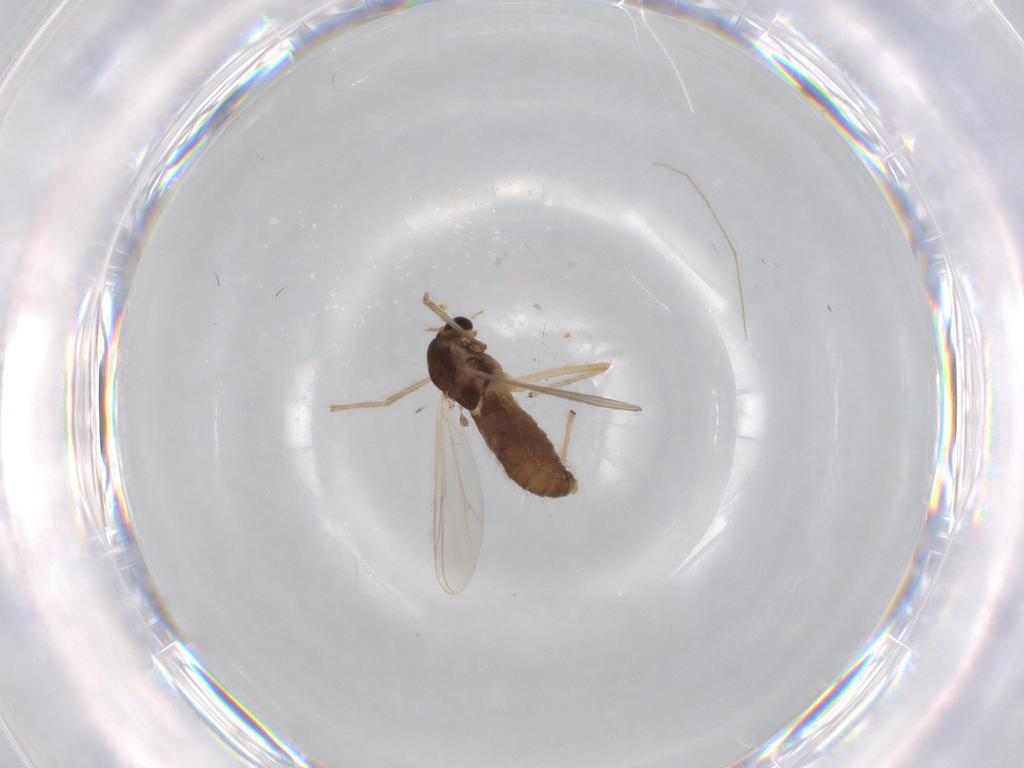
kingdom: Animalia
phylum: Arthropoda
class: Insecta
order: Diptera
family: Chironomidae
